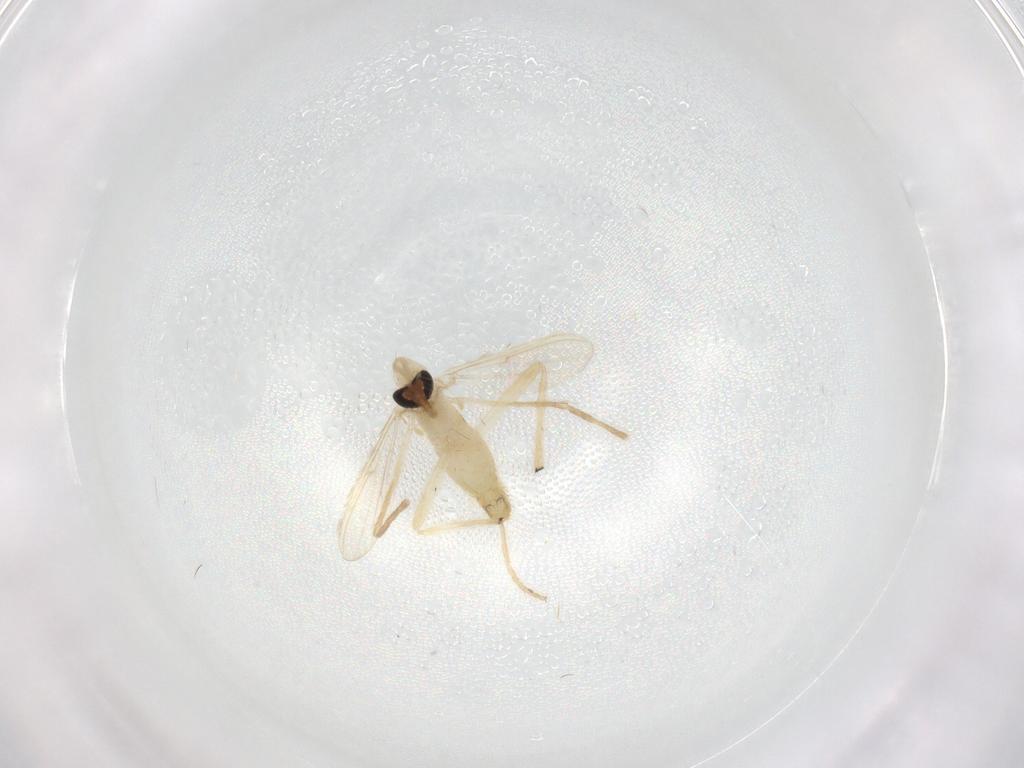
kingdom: Animalia
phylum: Arthropoda
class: Insecta
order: Diptera
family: Chironomidae
